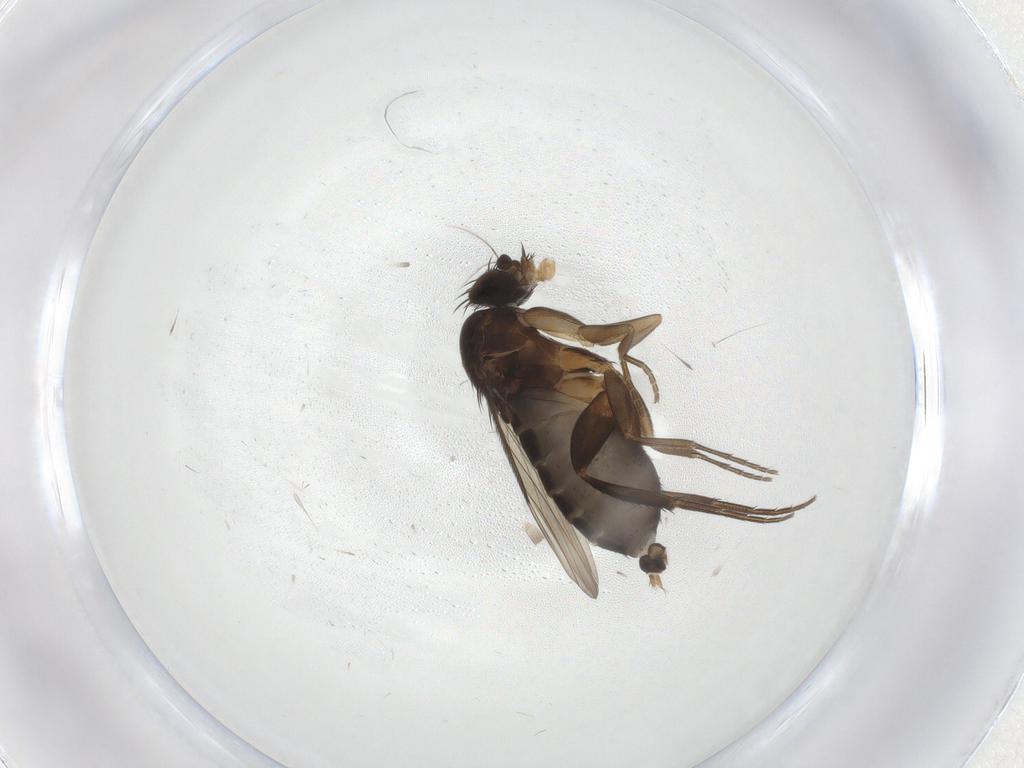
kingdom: Animalia
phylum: Arthropoda
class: Insecta
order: Diptera
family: Phoridae
